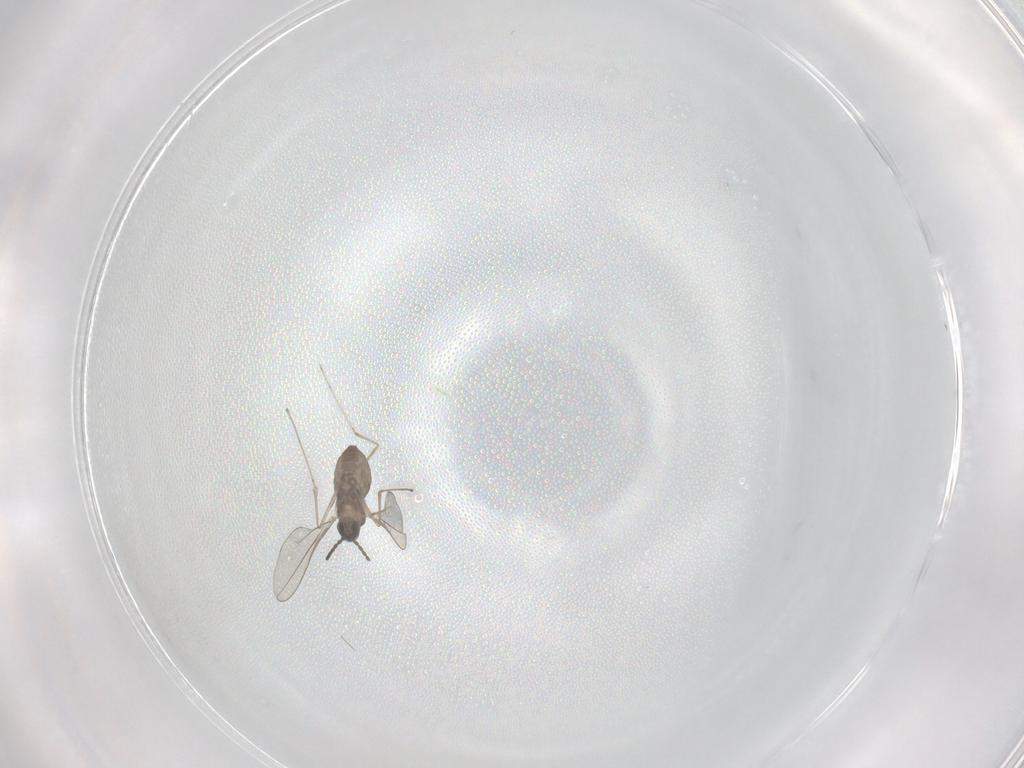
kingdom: Animalia
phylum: Arthropoda
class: Insecta
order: Diptera
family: Cecidomyiidae
